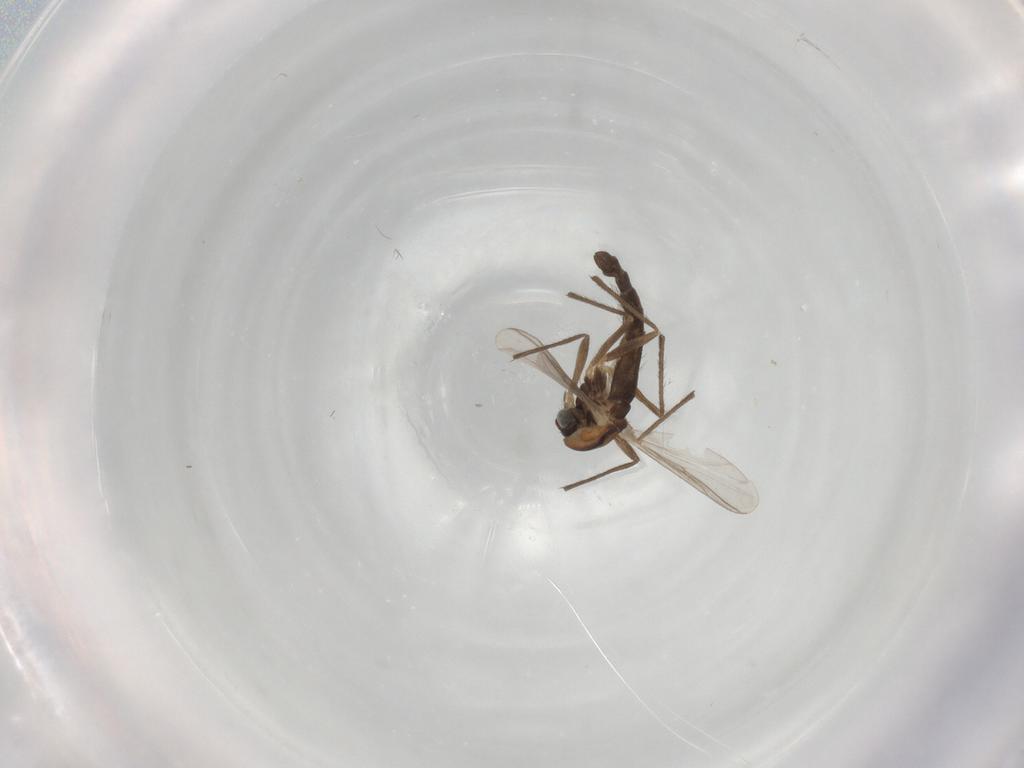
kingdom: Animalia
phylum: Arthropoda
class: Insecta
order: Diptera
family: Chironomidae
